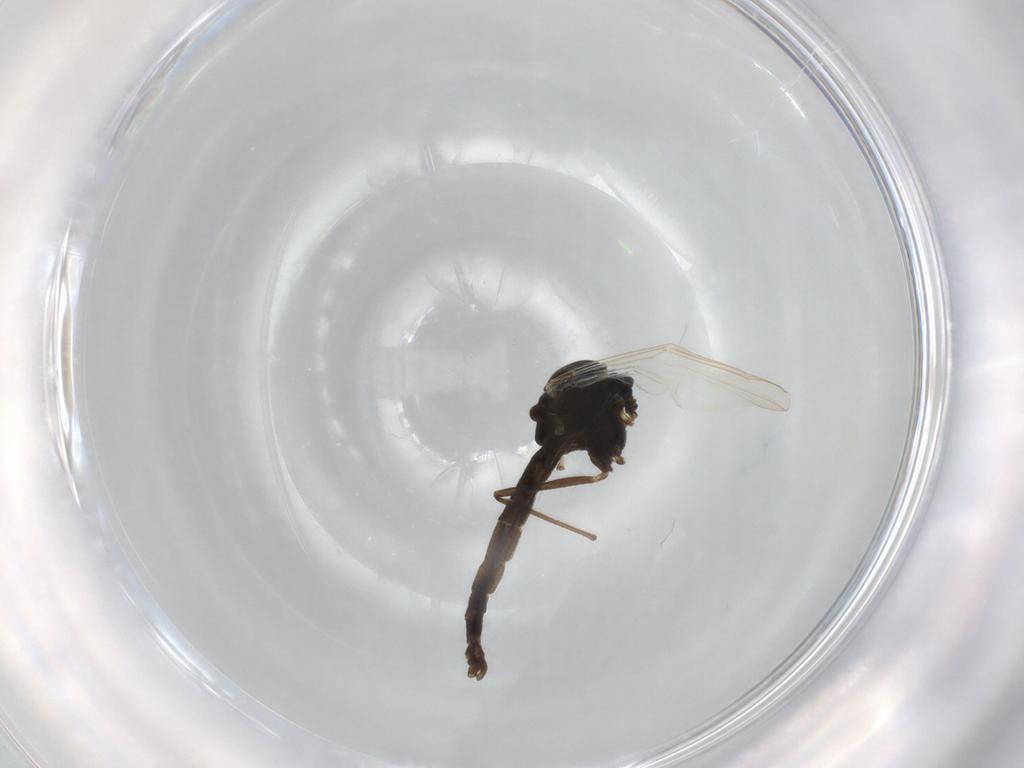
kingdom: Animalia
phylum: Arthropoda
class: Insecta
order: Diptera
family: Chironomidae
